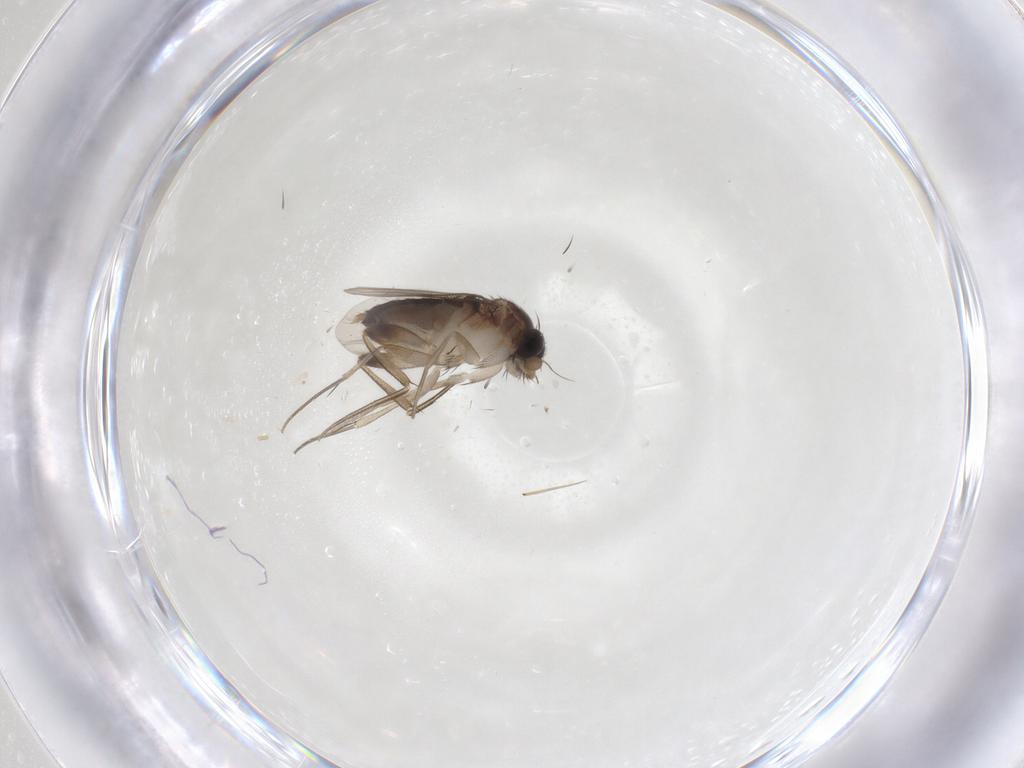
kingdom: Animalia
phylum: Arthropoda
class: Insecta
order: Diptera
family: Phoridae
